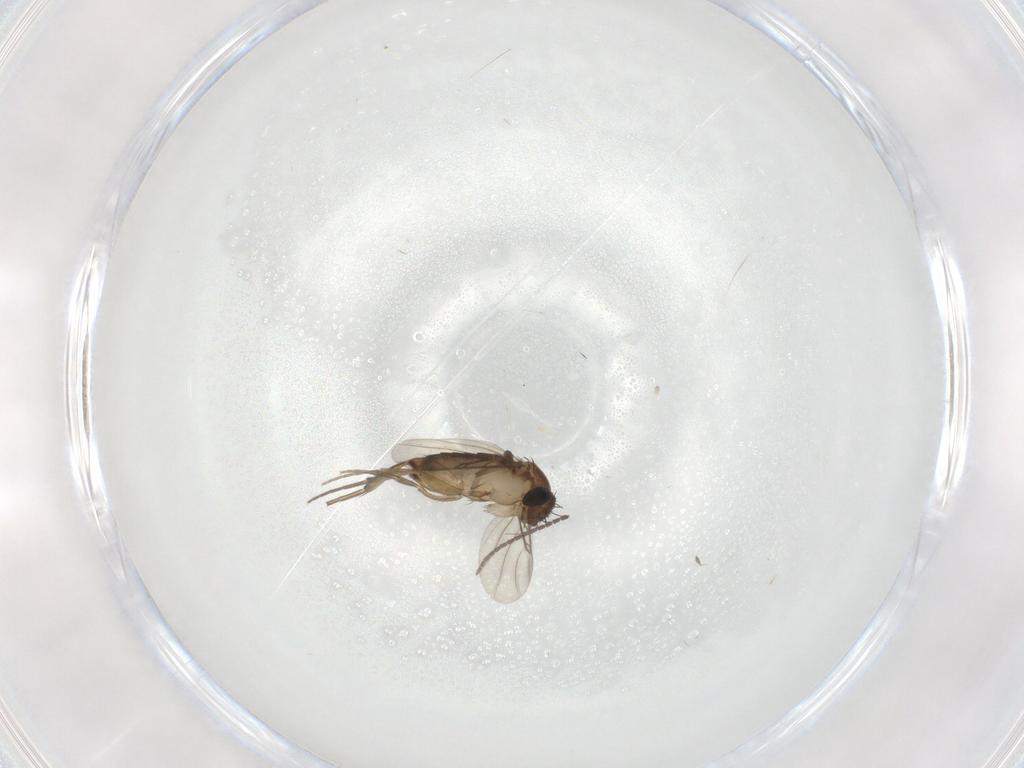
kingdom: Animalia
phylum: Arthropoda
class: Insecta
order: Diptera
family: Phoridae
